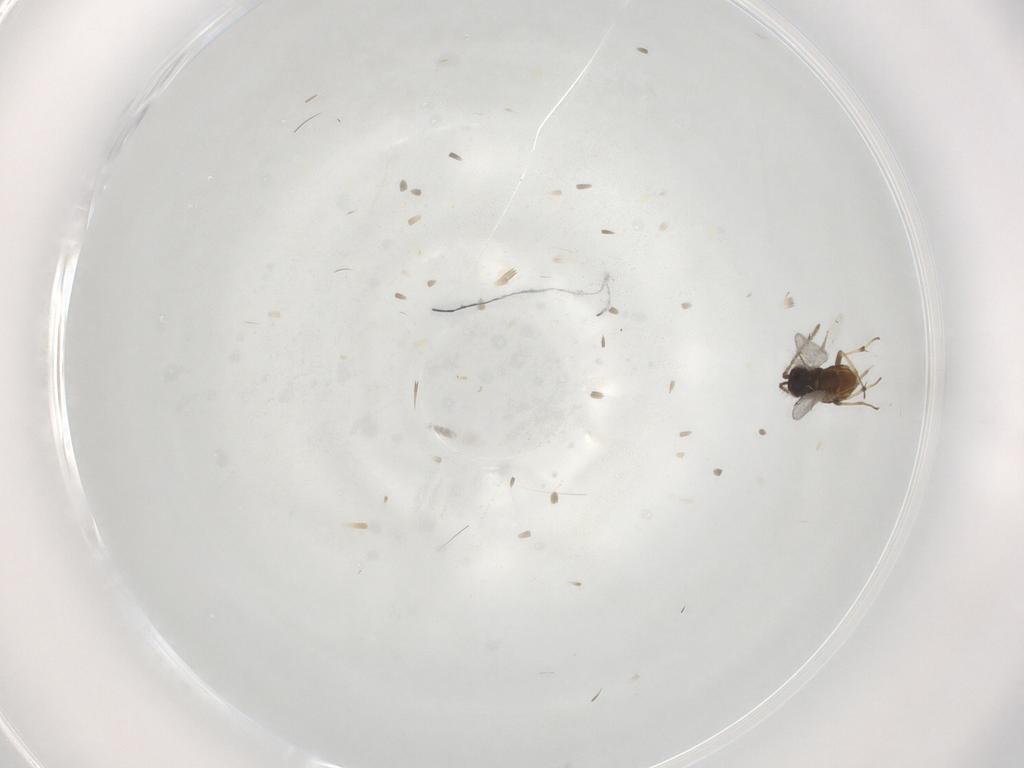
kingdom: Animalia
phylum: Arthropoda
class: Insecta
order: Hymenoptera
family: Encyrtidae
